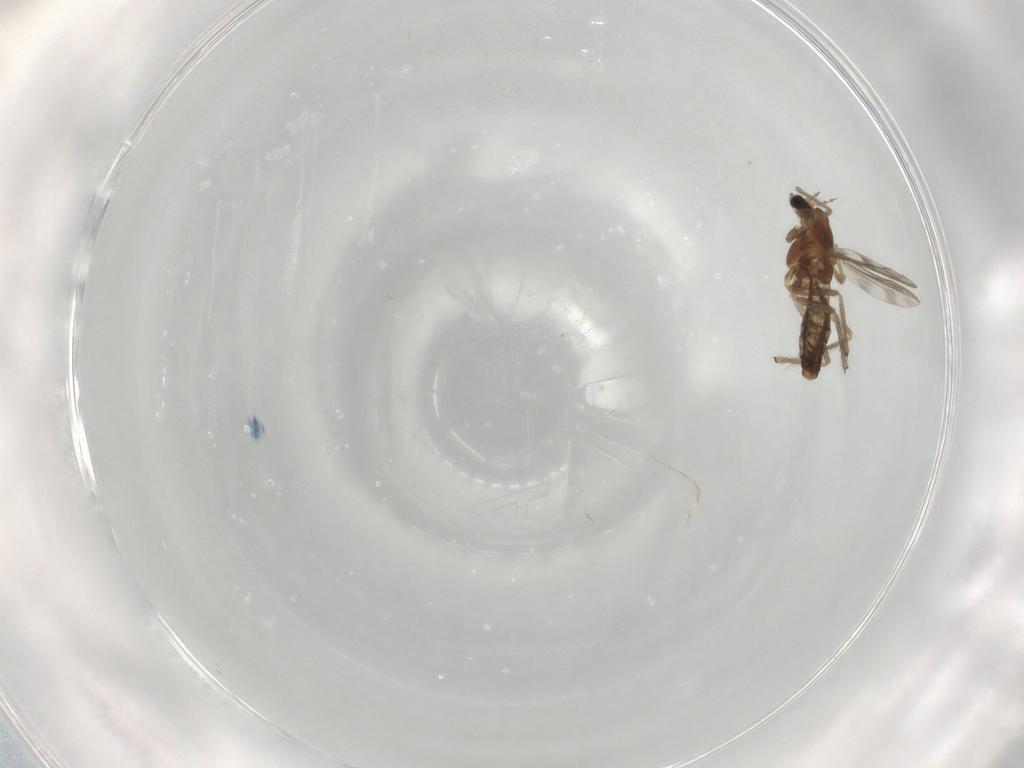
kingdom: Animalia
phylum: Arthropoda
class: Insecta
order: Diptera
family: Chironomidae
